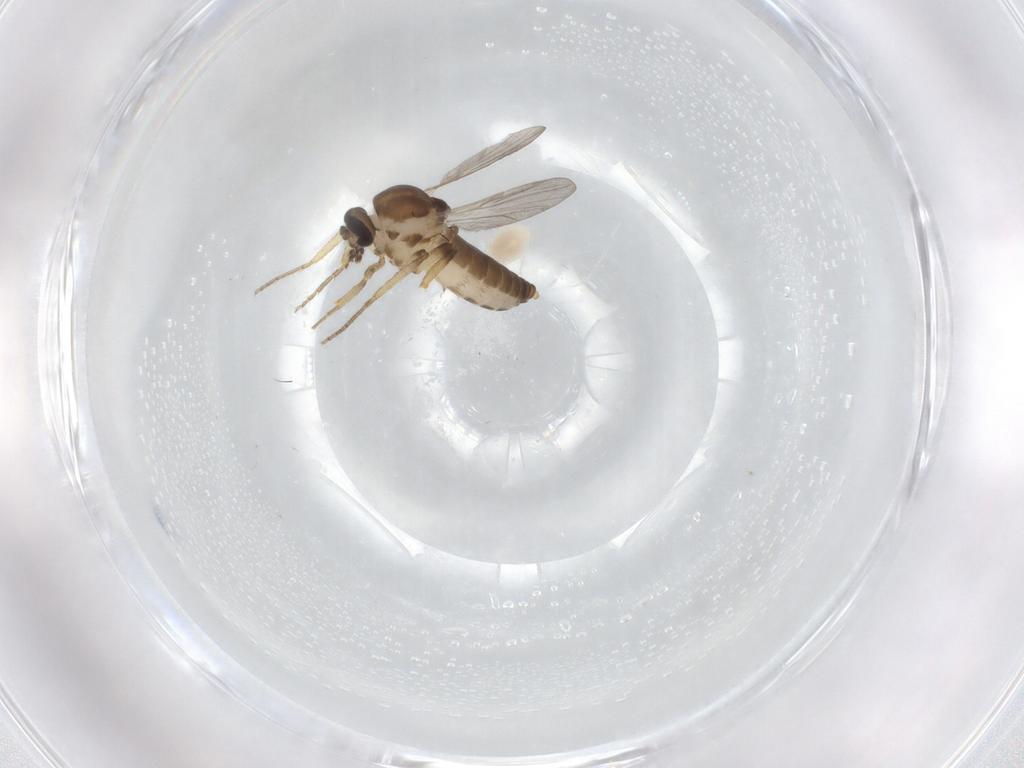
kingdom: Animalia
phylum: Arthropoda
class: Insecta
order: Diptera
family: Ceratopogonidae
